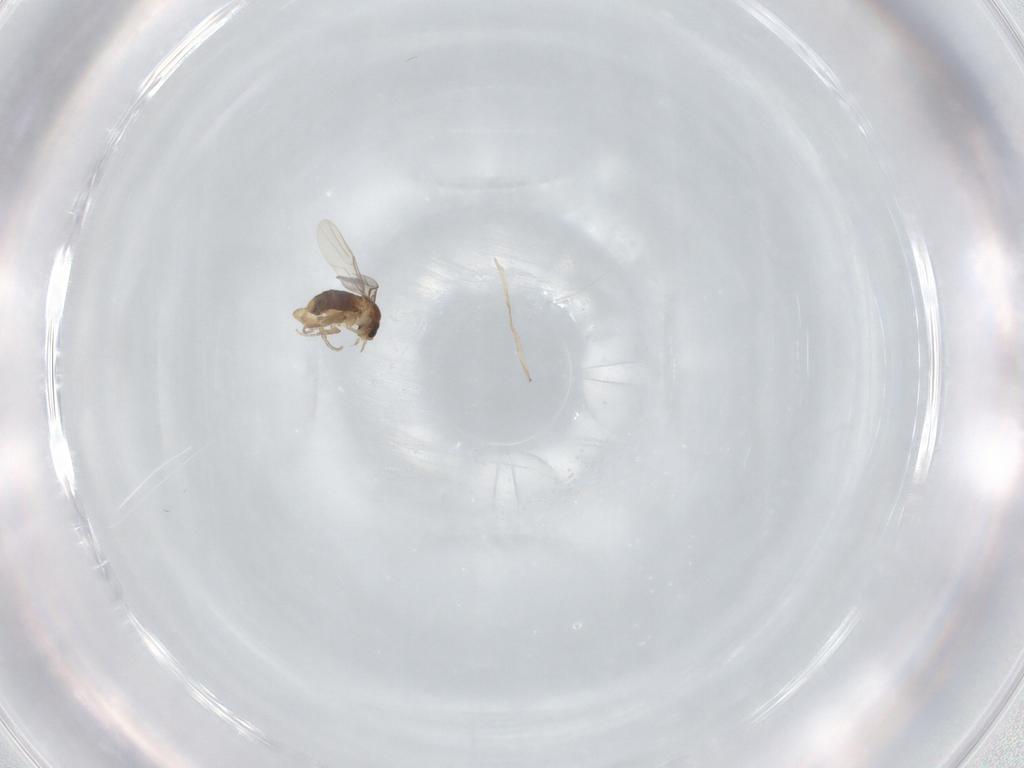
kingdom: Animalia
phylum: Arthropoda
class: Insecta
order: Diptera
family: Phoridae
